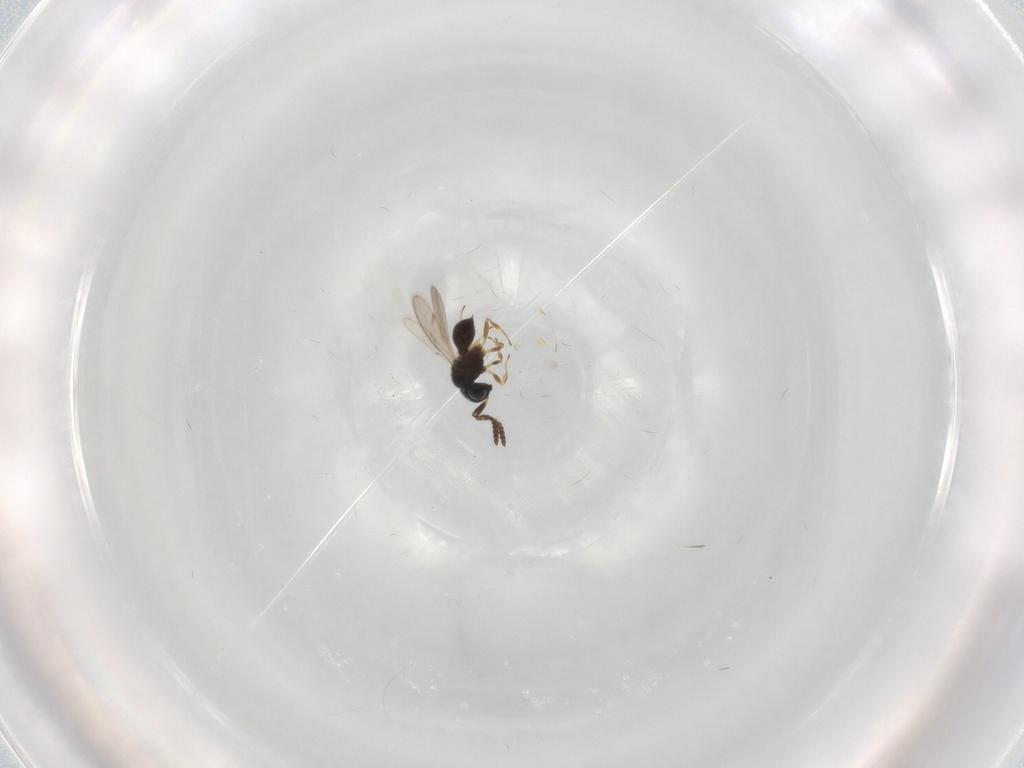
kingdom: Animalia
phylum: Arthropoda
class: Insecta
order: Hymenoptera
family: Scelionidae
